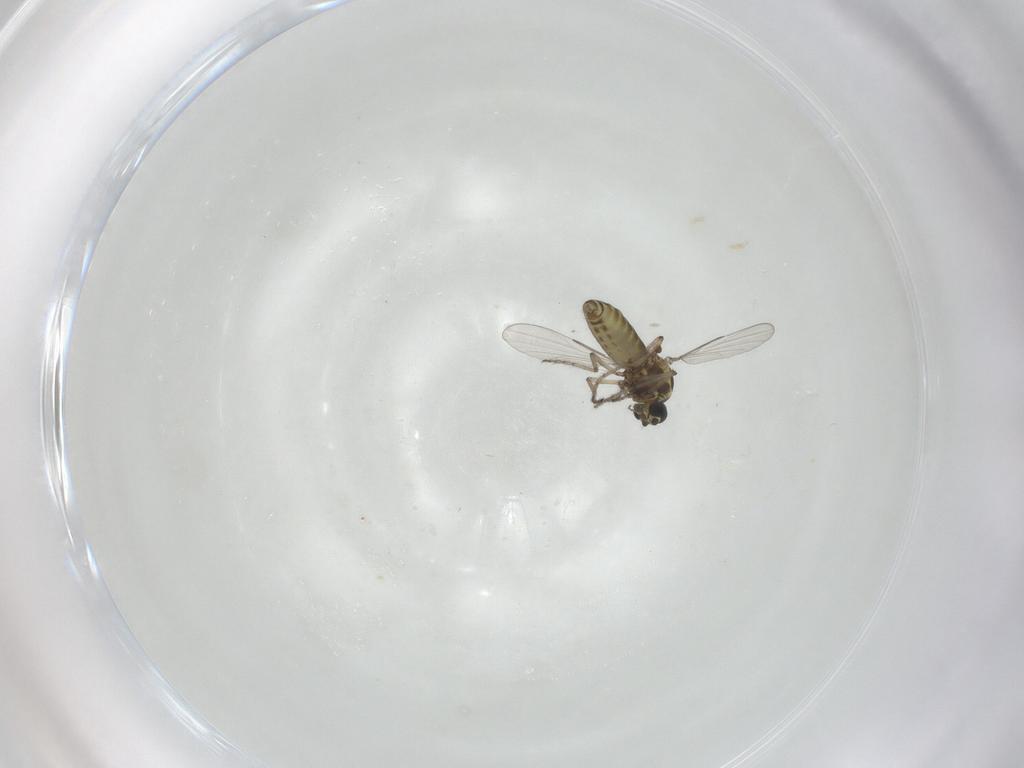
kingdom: Animalia
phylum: Arthropoda
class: Insecta
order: Diptera
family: Ceratopogonidae
